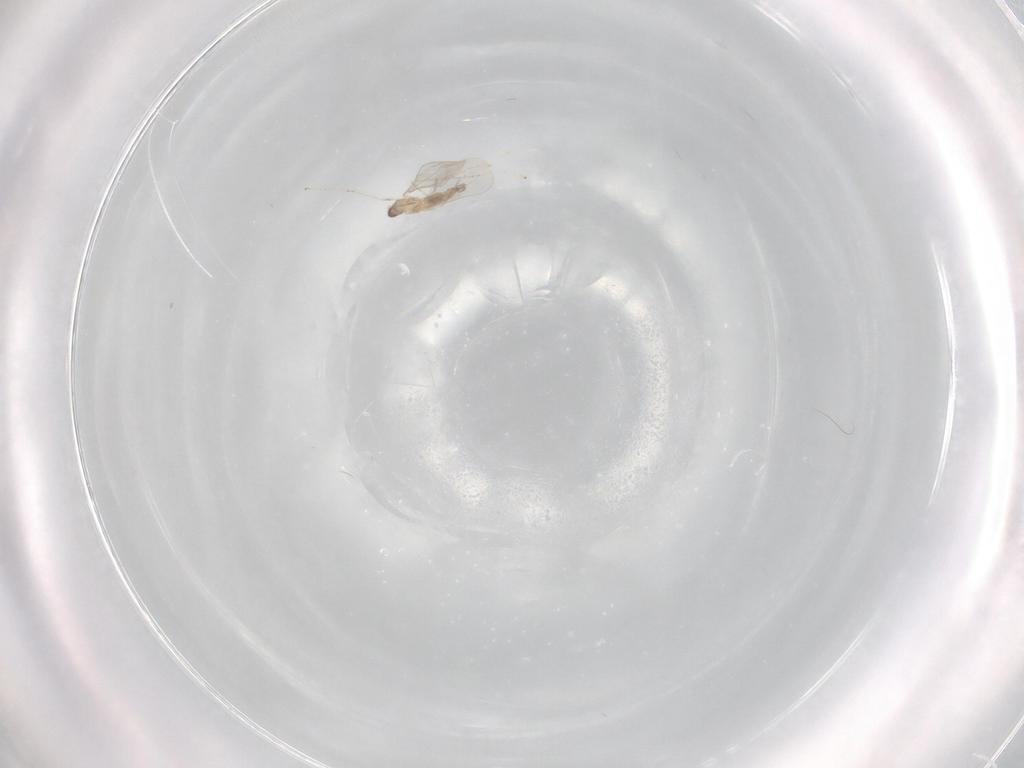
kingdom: Animalia
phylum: Arthropoda
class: Insecta
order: Diptera
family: Cecidomyiidae
